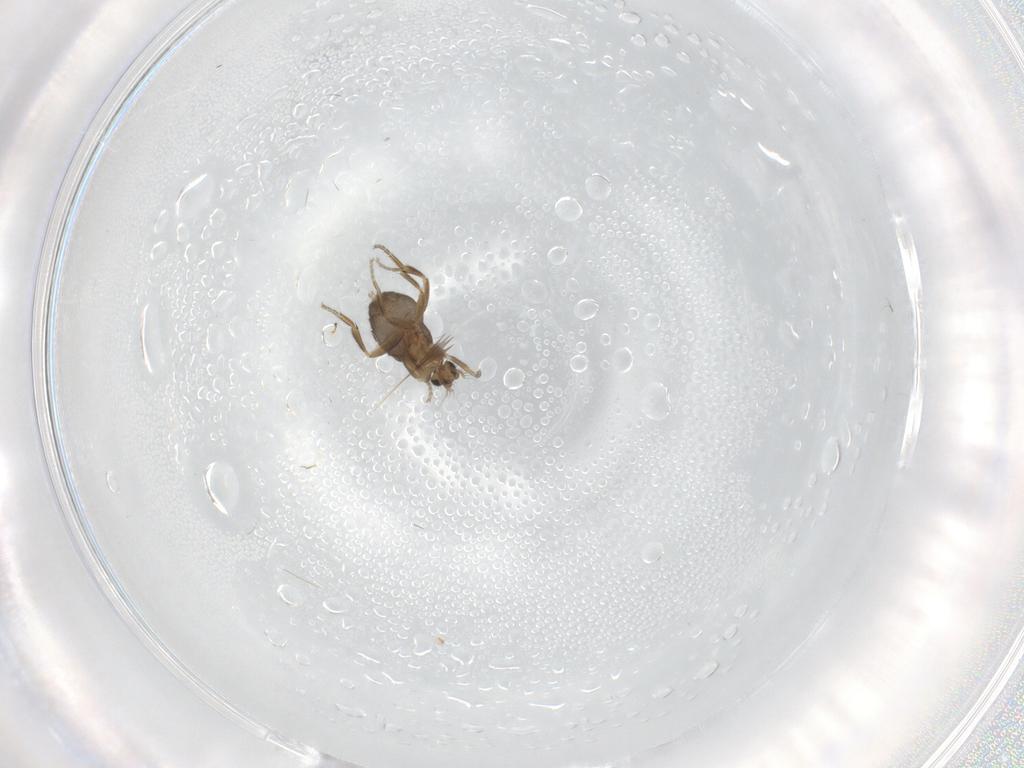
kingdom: Animalia
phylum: Arthropoda
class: Insecta
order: Diptera
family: Phoridae
